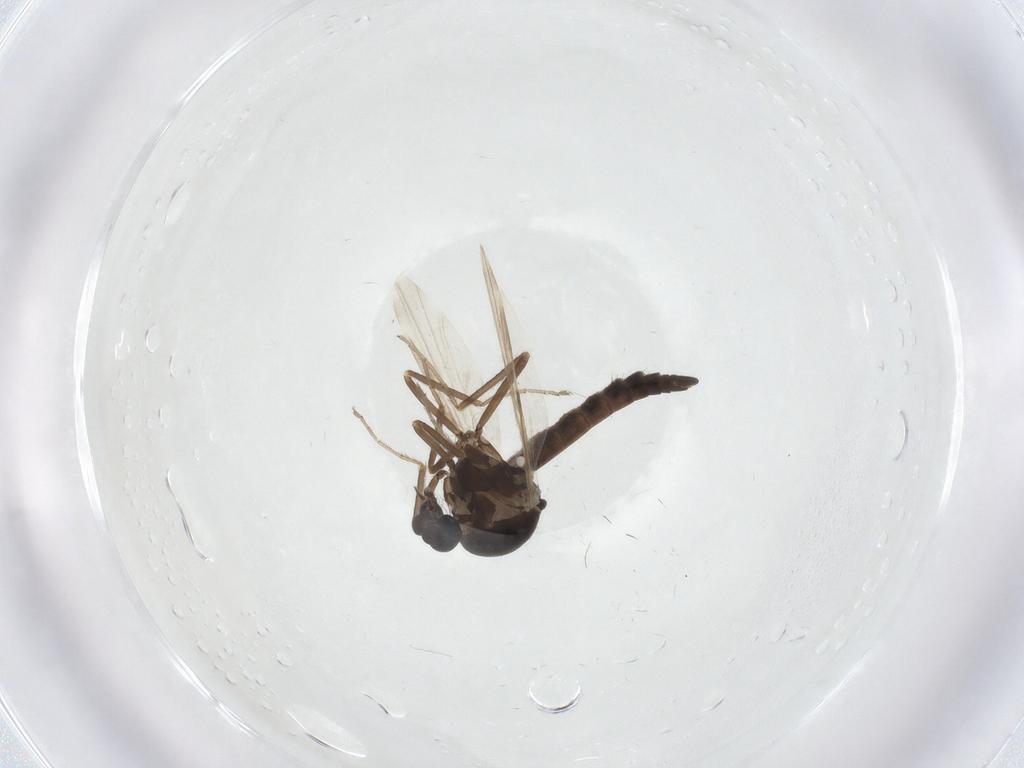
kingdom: Animalia
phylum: Arthropoda
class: Insecta
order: Diptera
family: Ceratopogonidae
